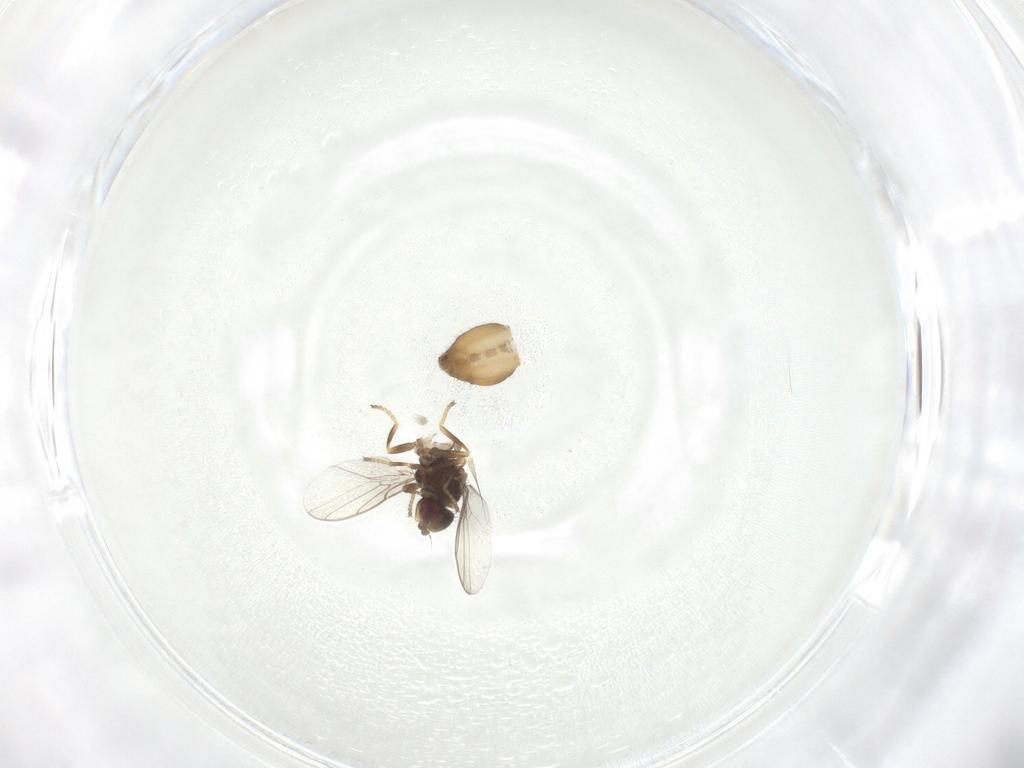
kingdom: Animalia
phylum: Arthropoda
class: Insecta
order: Diptera
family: Chloropidae
